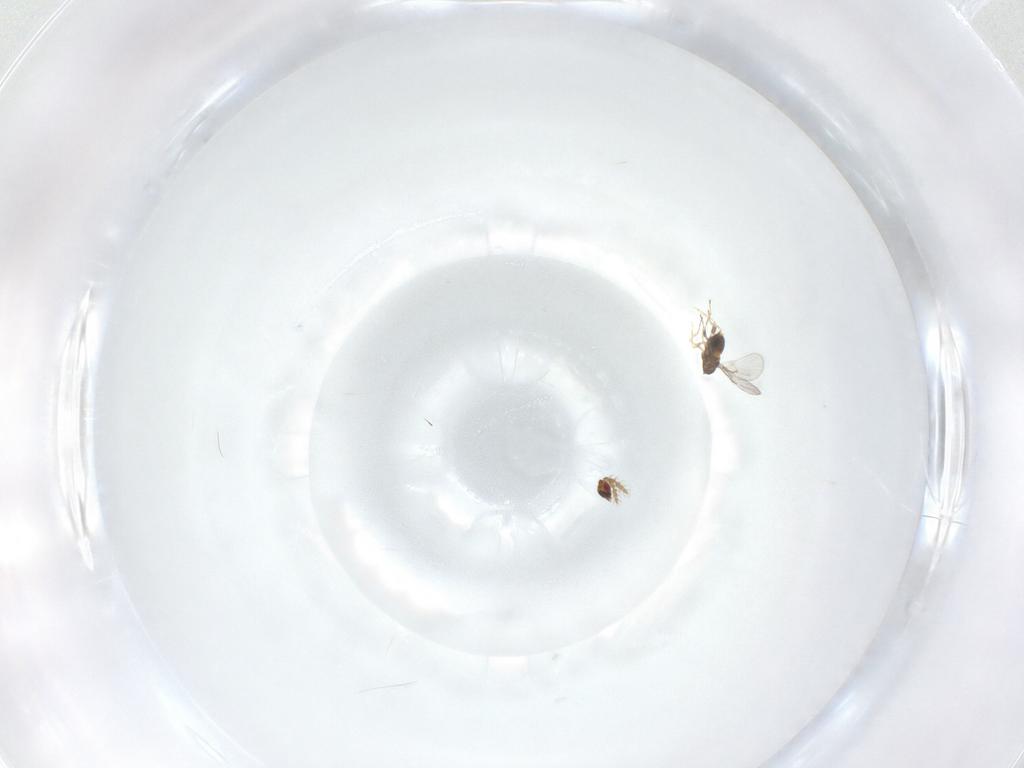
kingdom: Animalia
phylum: Arthropoda
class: Insecta
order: Hymenoptera
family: Trichogrammatidae
